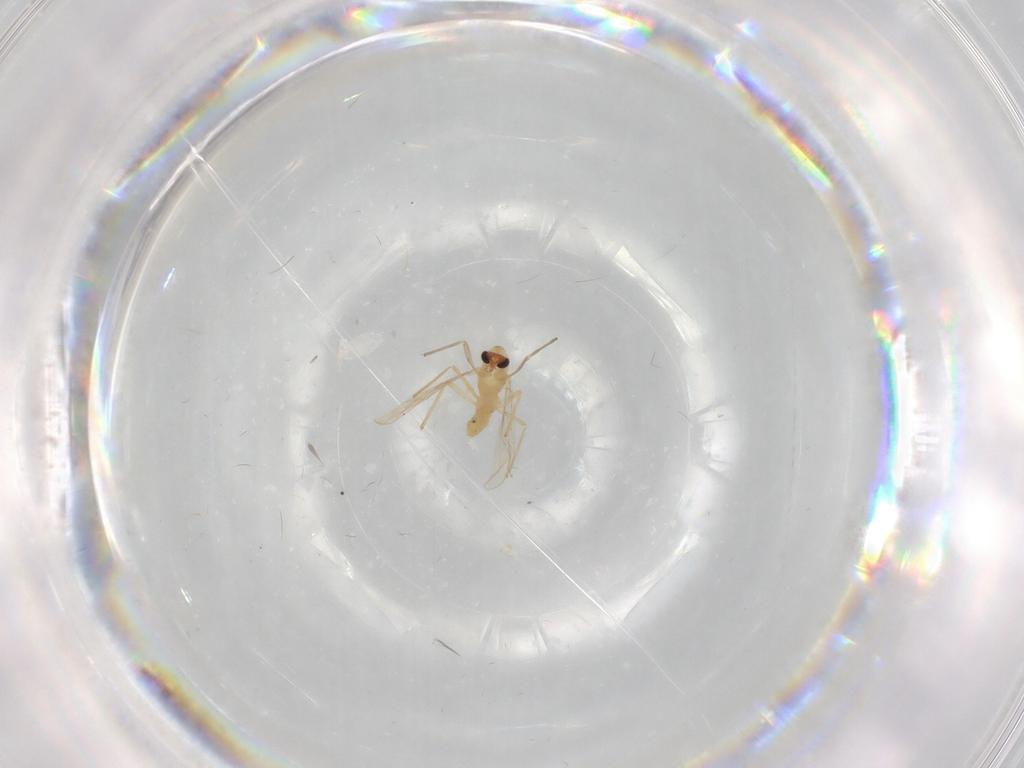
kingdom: Animalia
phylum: Arthropoda
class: Insecta
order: Diptera
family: Chironomidae
